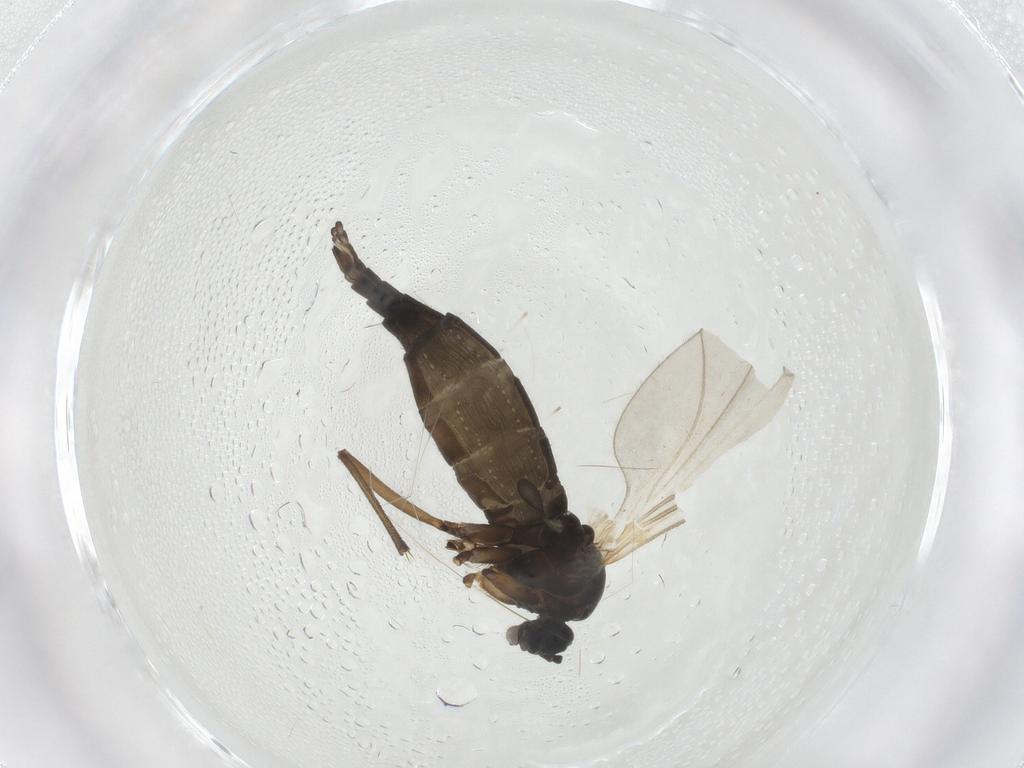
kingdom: Animalia
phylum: Arthropoda
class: Insecta
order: Diptera
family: Sciaridae
